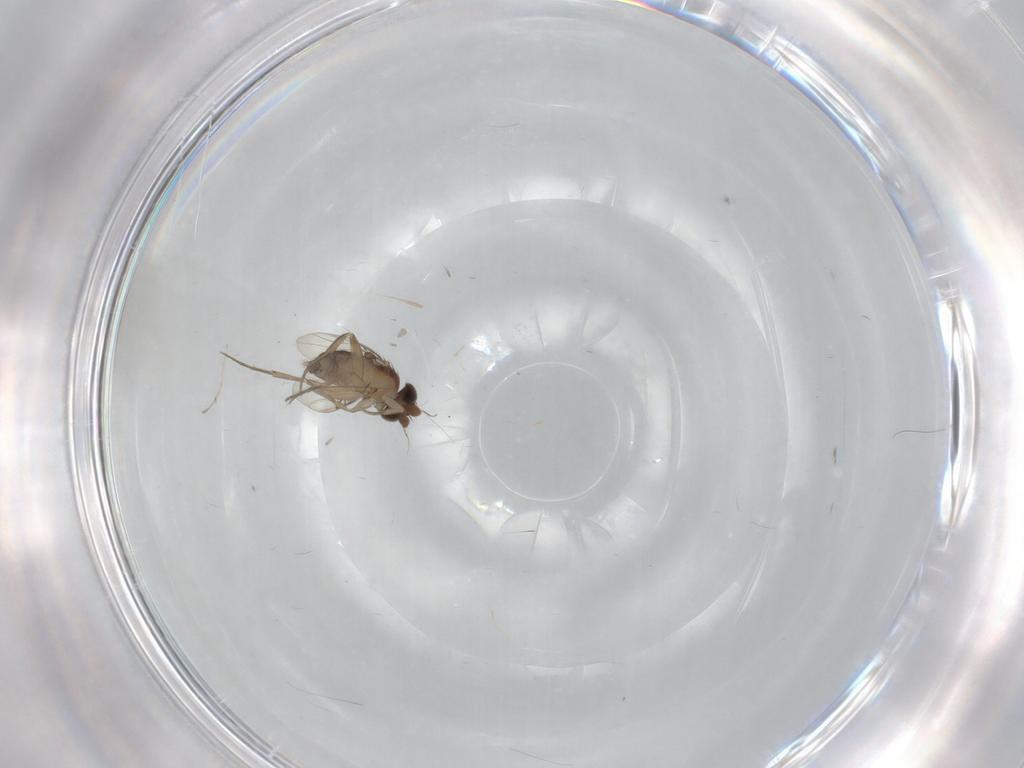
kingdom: Animalia
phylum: Arthropoda
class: Insecta
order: Diptera
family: Phoridae
